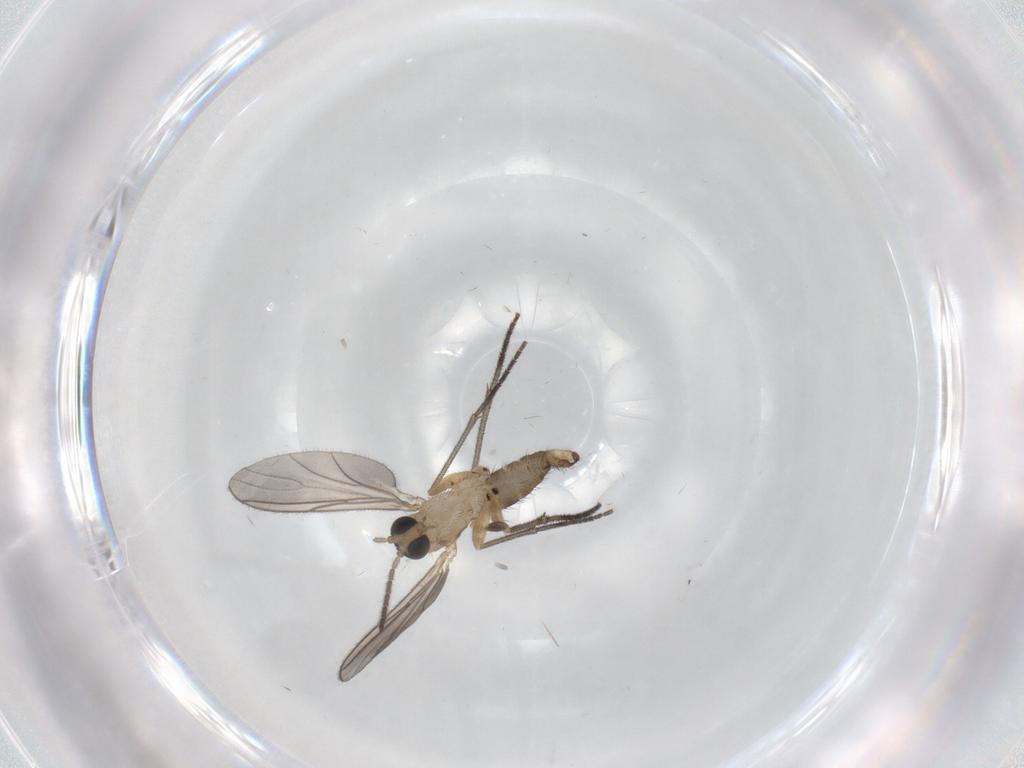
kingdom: Animalia
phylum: Arthropoda
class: Insecta
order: Diptera
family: Sciaridae
